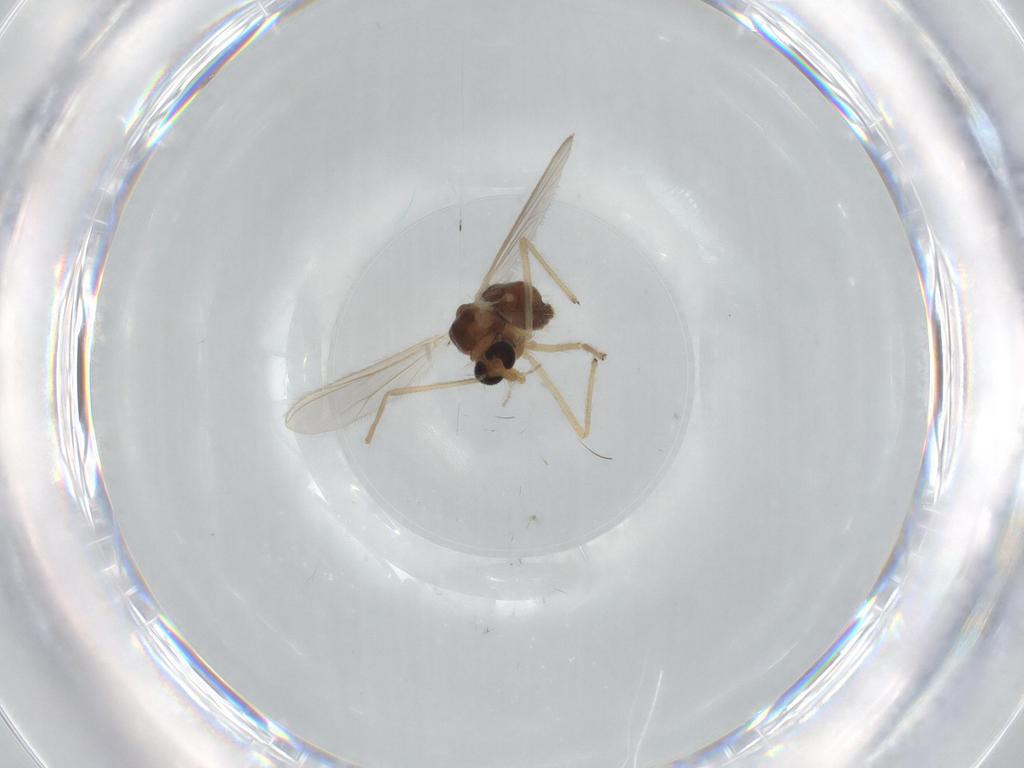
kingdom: Animalia
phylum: Arthropoda
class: Insecta
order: Diptera
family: Chironomidae
